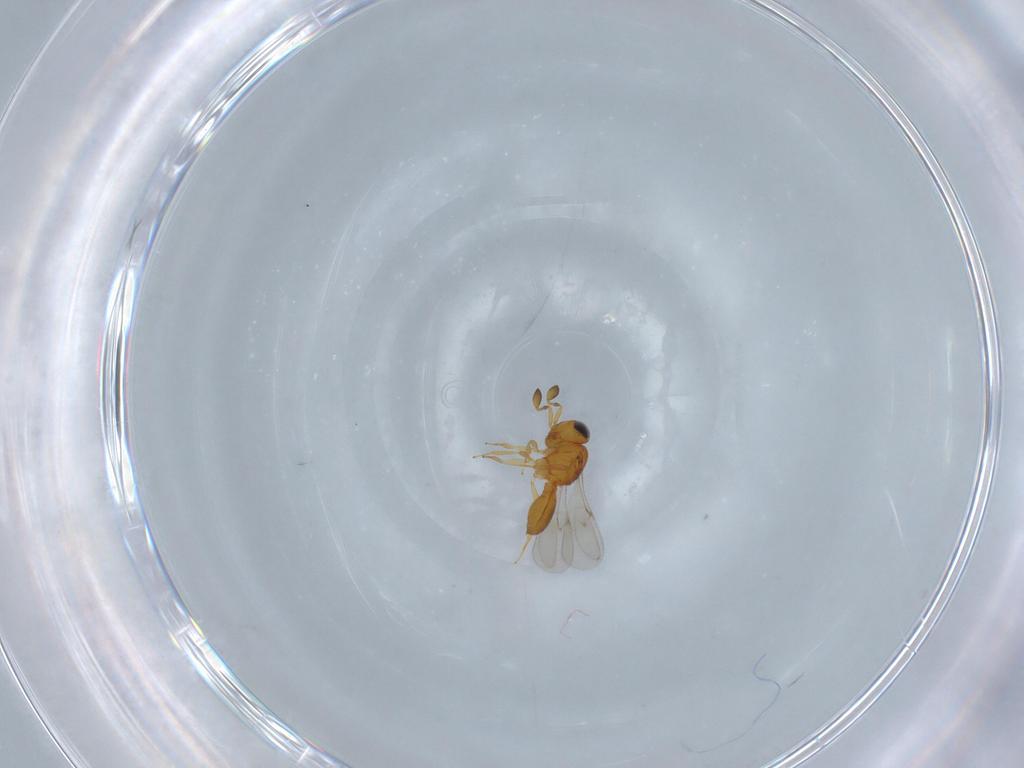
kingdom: Animalia
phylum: Arthropoda
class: Insecta
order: Hymenoptera
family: Scelionidae
